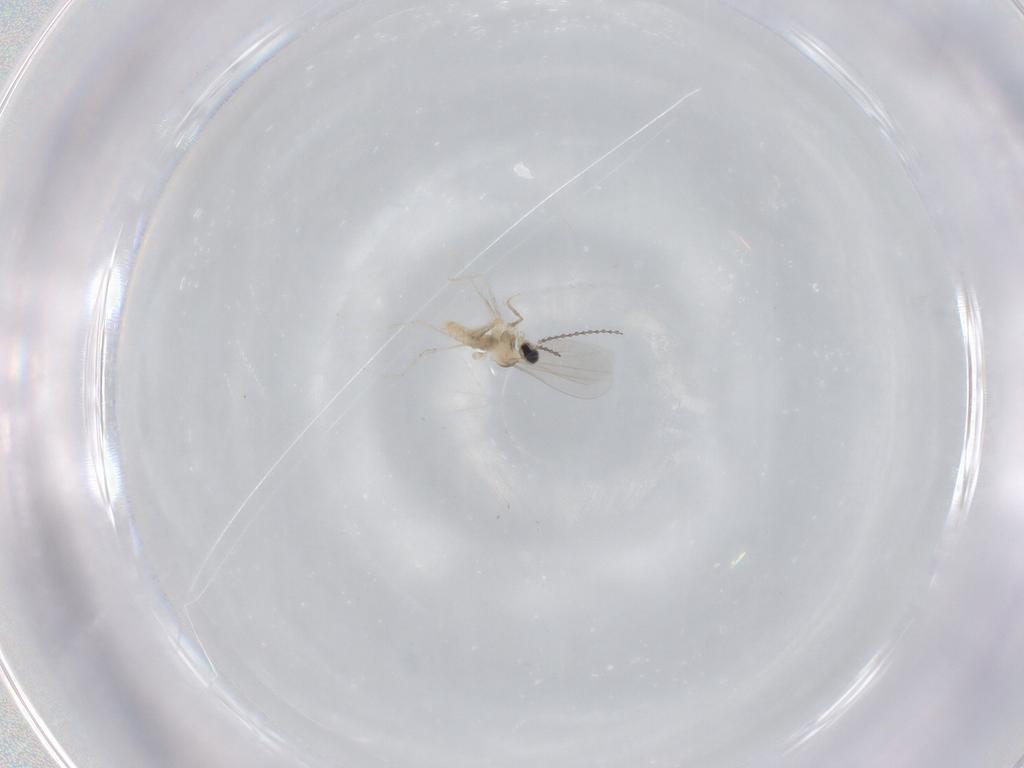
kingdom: Animalia
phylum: Arthropoda
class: Insecta
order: Diptera
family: Cecidomyiidae
